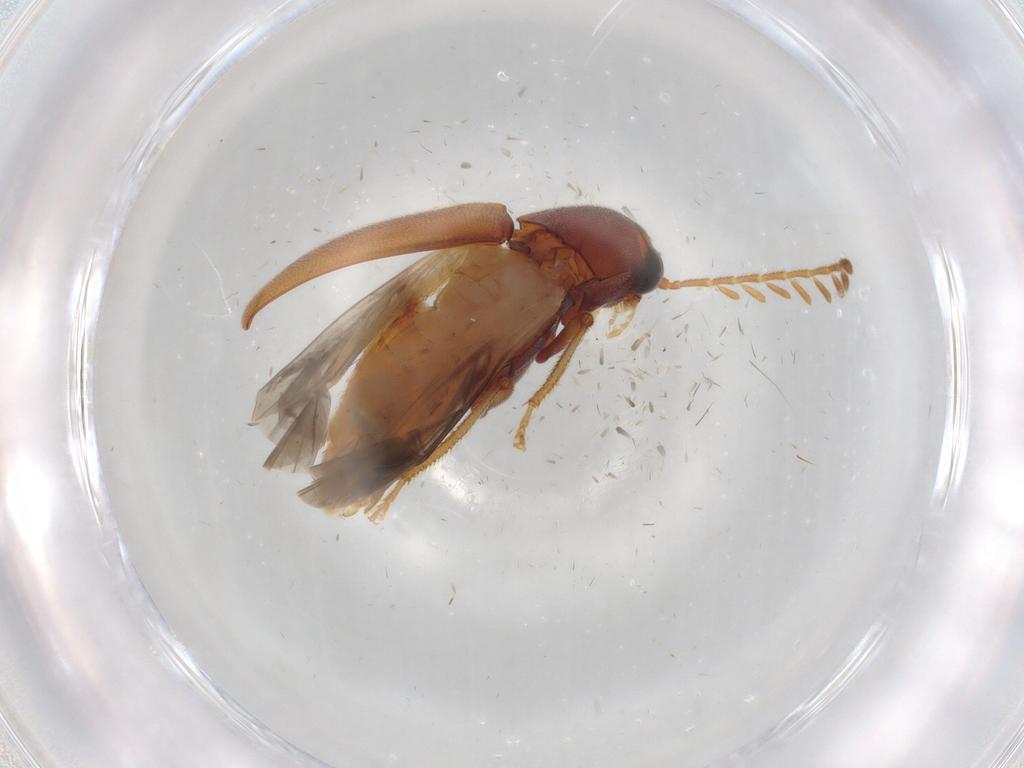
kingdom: Animalia
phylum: Arthropoda
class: Insecta
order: Coleoptera
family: Ptilodactylidae
